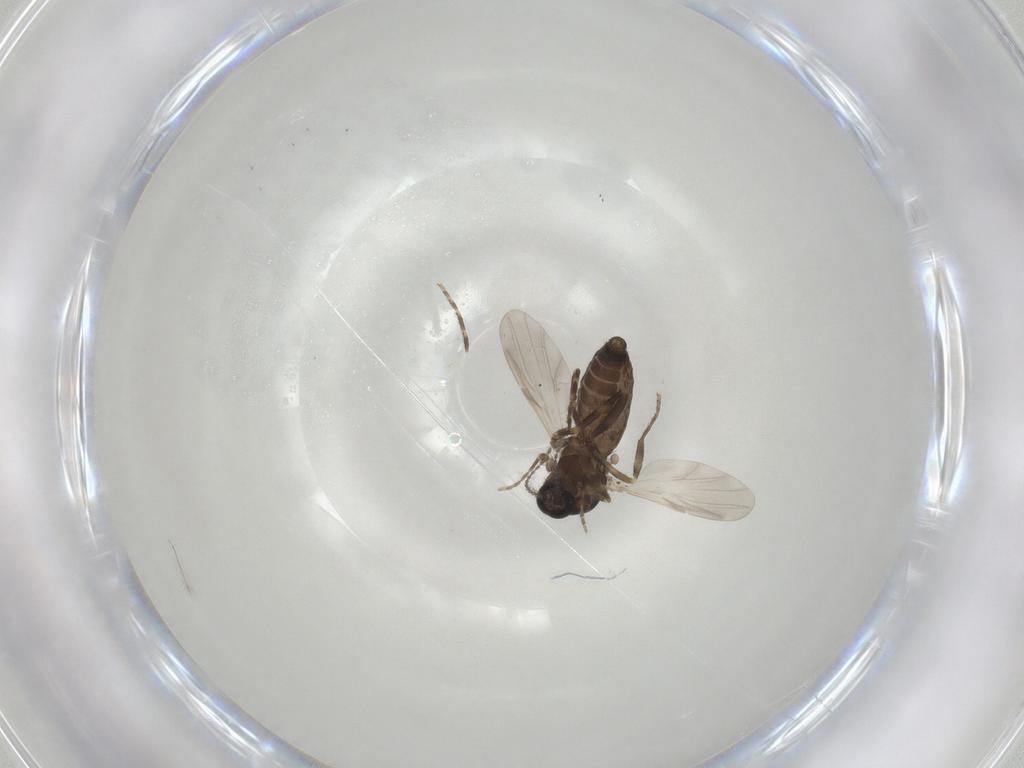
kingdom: Animalia
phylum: Arthropoda
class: Insecta
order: Diptera
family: Ceratopogonidae
